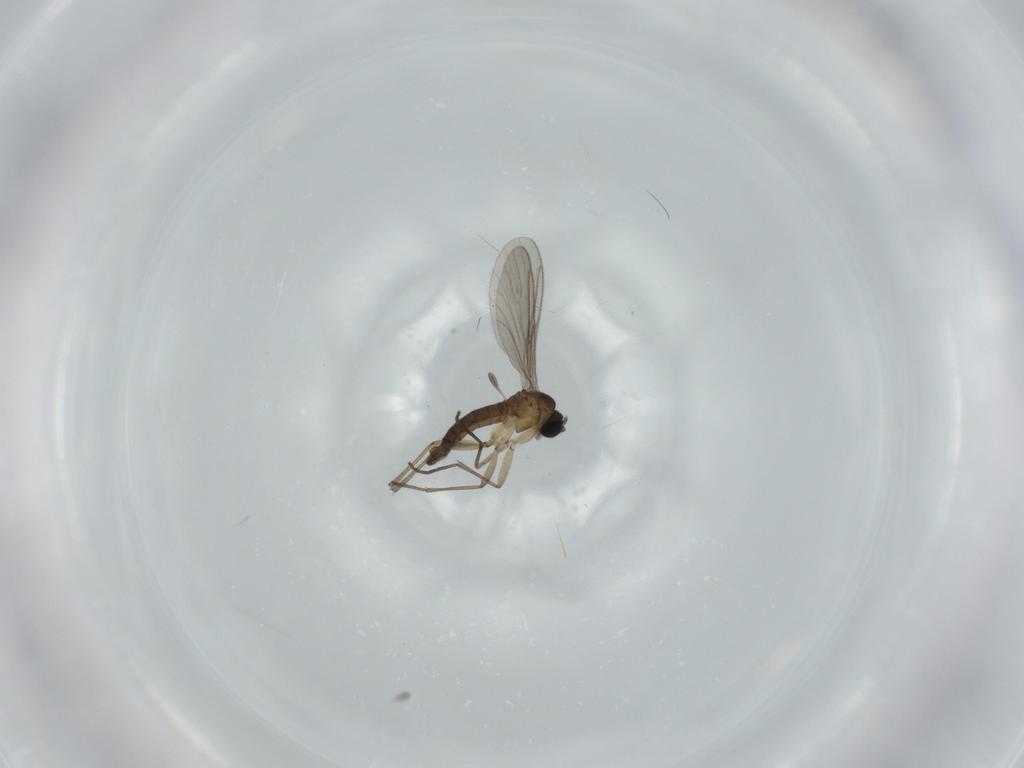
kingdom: Animalia
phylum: Arthropoda
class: Insecta
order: Diptera
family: Sciaridae
